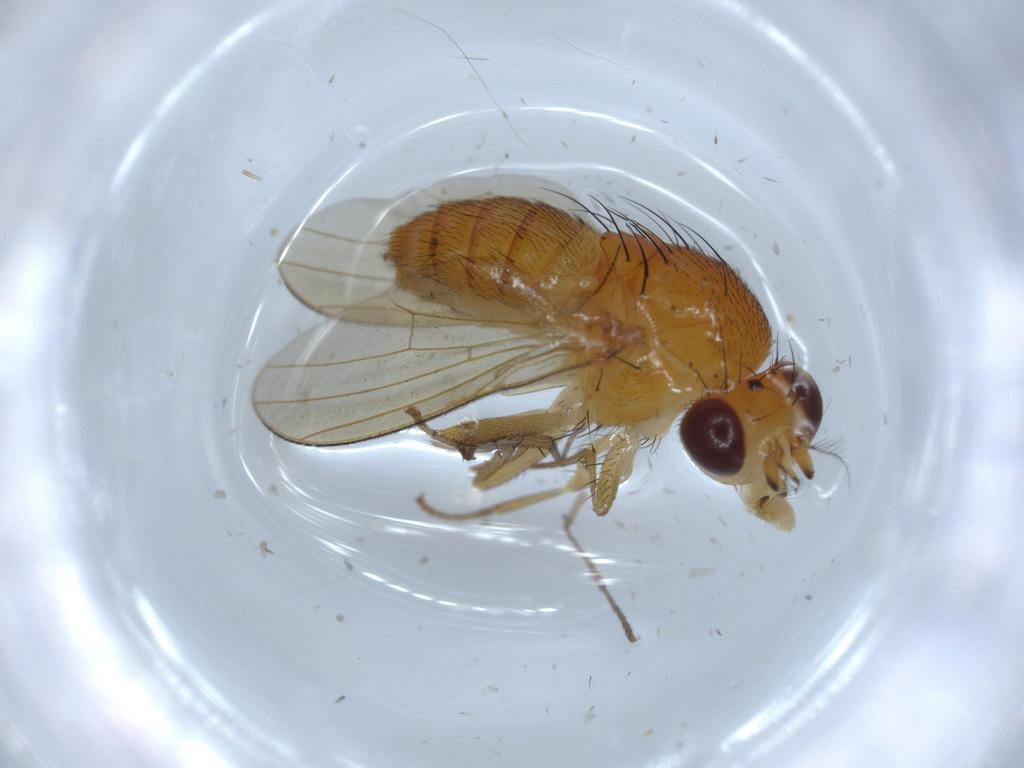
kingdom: Animalia
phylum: Arthropoda
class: Insecta
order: Diptera
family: Lauxaniidae
